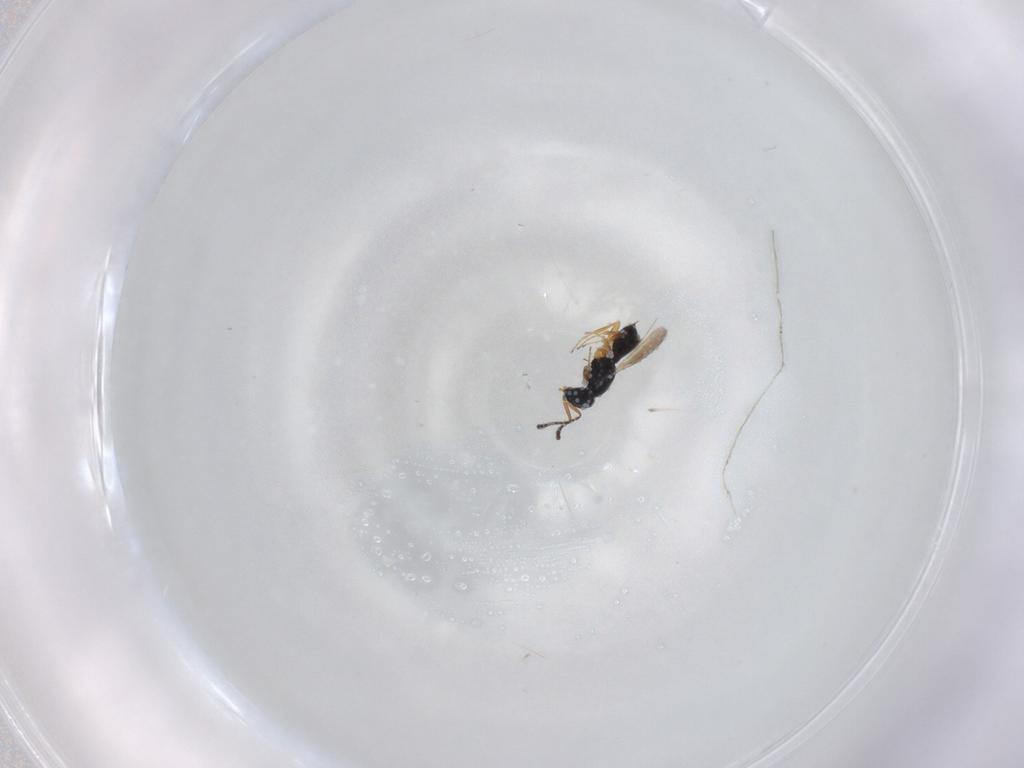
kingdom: Animalia
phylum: Arthropoda
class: Insecta
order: Hymenoptera
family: Scelionidae
